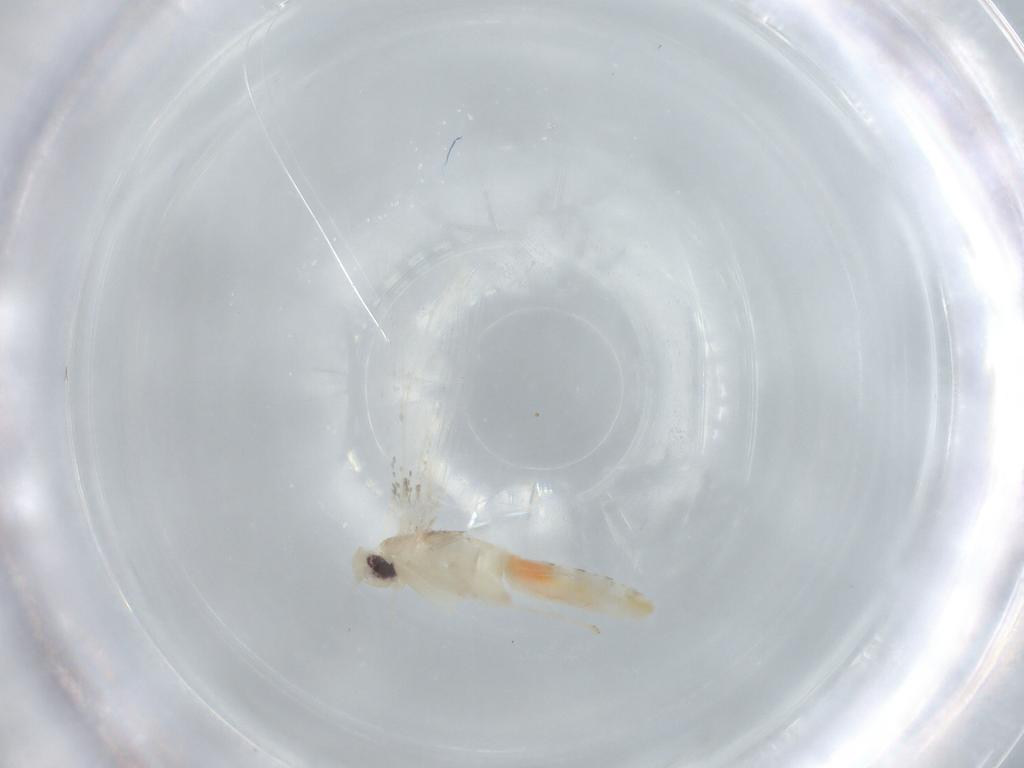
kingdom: Animalia
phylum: Arthropoda
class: Insecta
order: Lepidoptera
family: Gracillariidae
